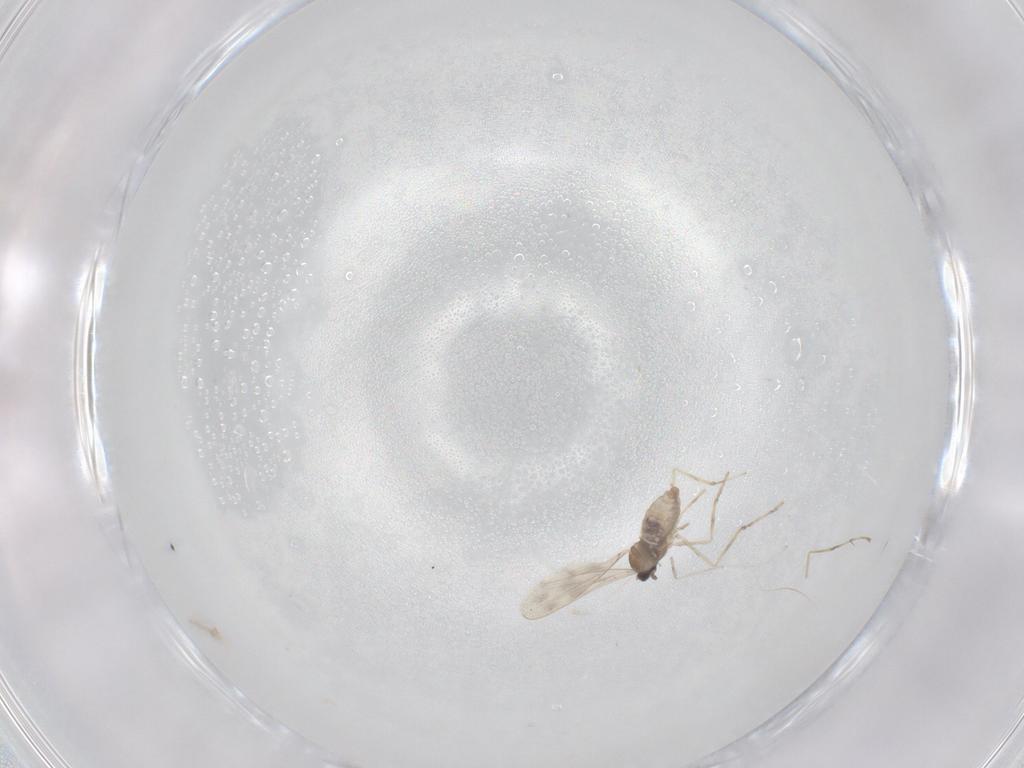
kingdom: Animalia
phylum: Arthropoda
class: Insecta
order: Diptera
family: Cecidomyiidae
